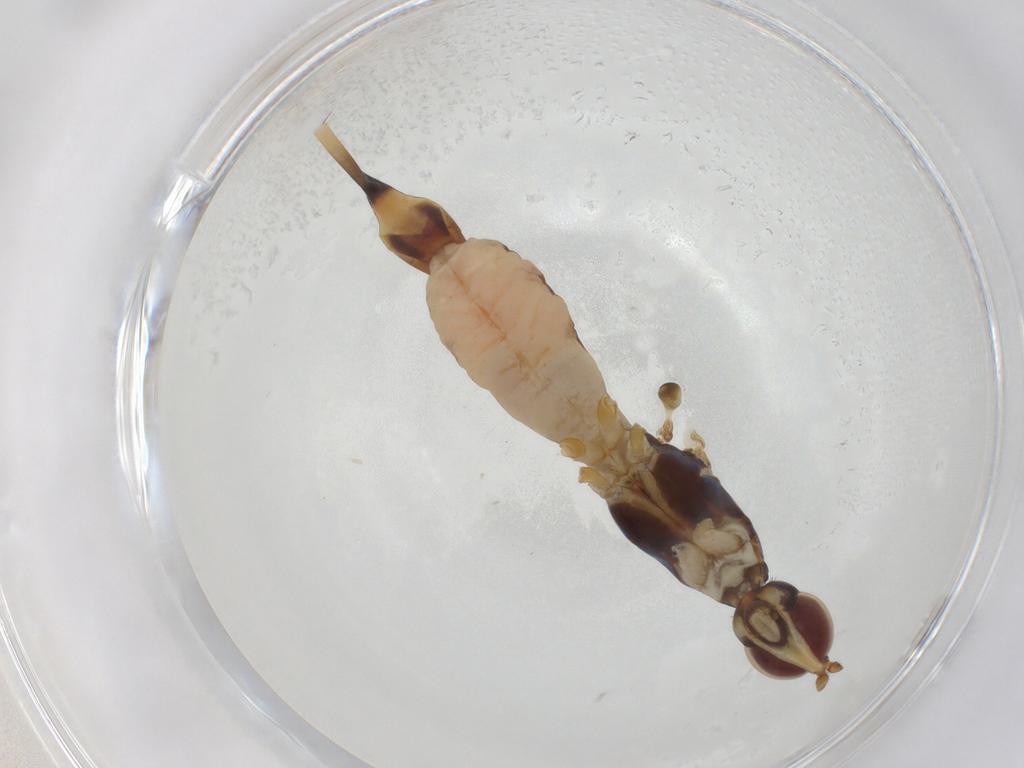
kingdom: Animalia
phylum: Arthropoda
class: Insecta
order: Diptera
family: Micropezidae
